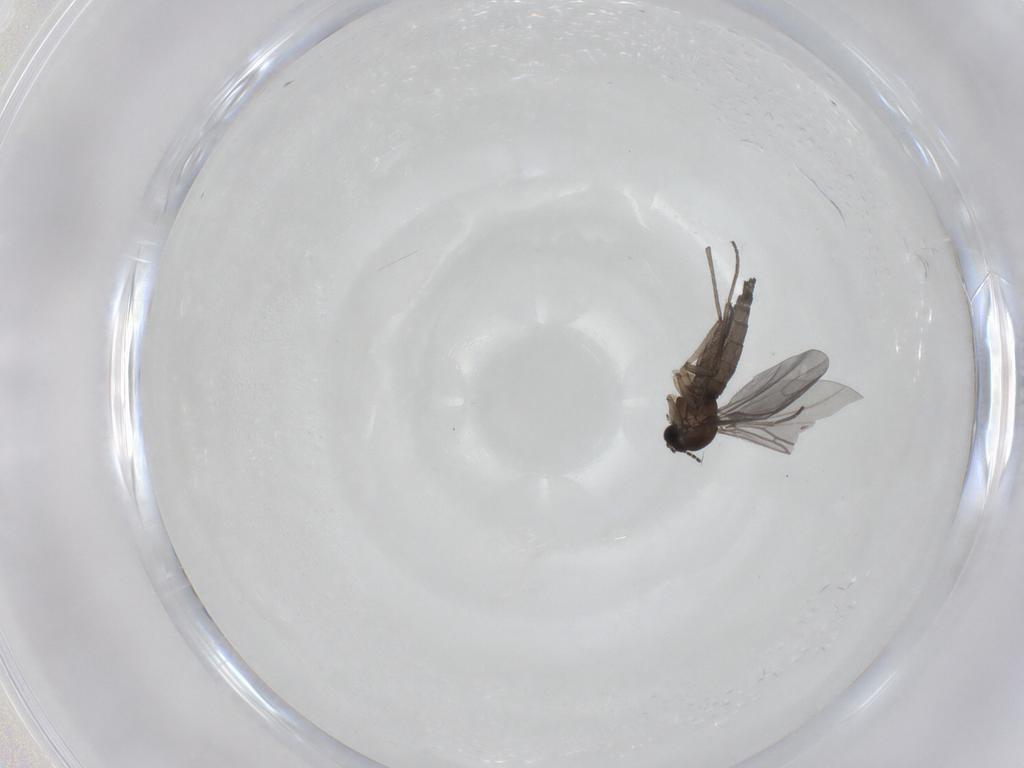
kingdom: Animalia
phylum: Arthropoda
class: Insecta
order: Diptera
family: Sciaridae
